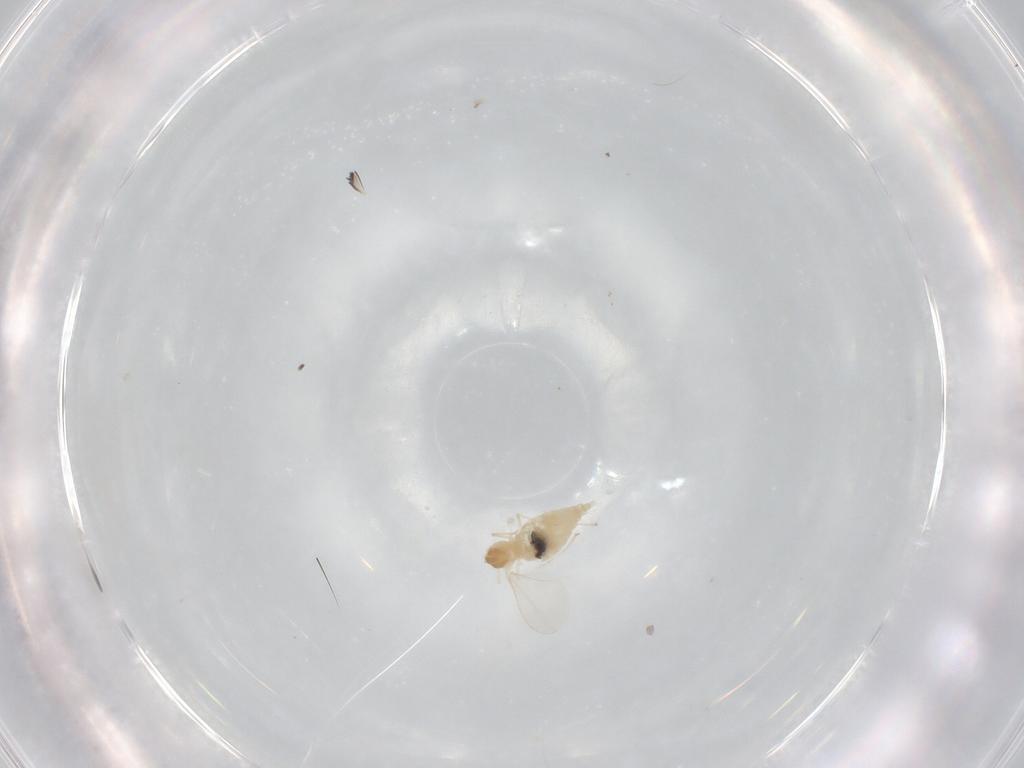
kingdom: Animalia
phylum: Arthropoda
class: Insecta
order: Diptera
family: Cecidomyiidae
